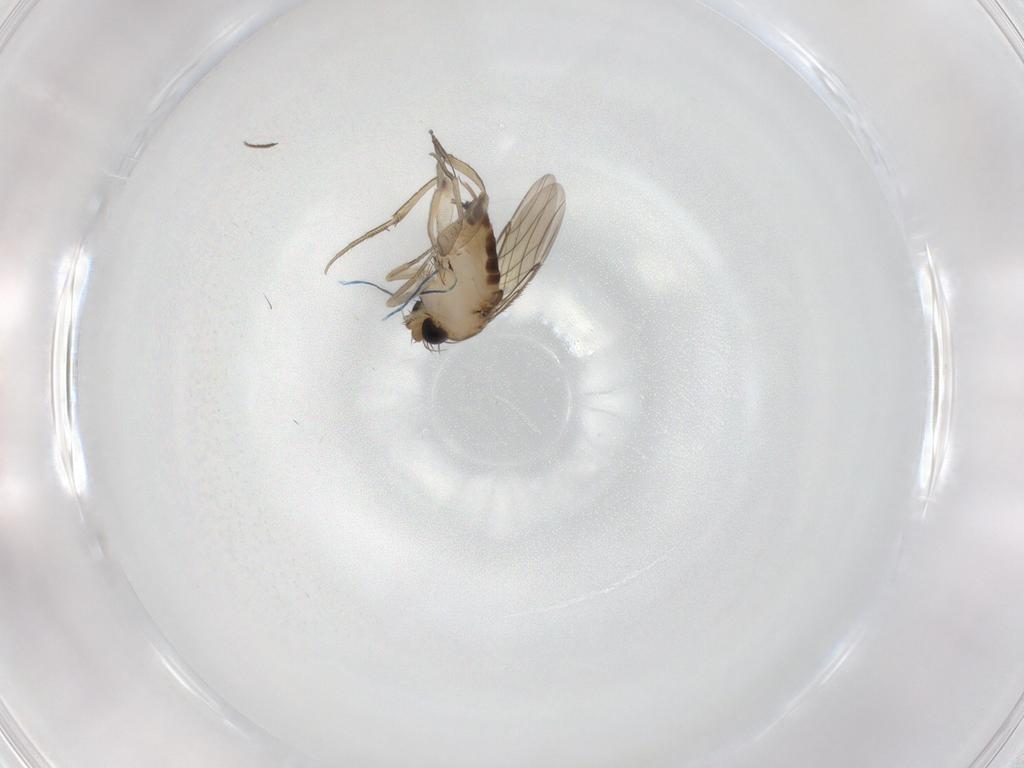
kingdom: Animalia
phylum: Arthropoda
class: Insecta
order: Diptera
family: Phoridae
